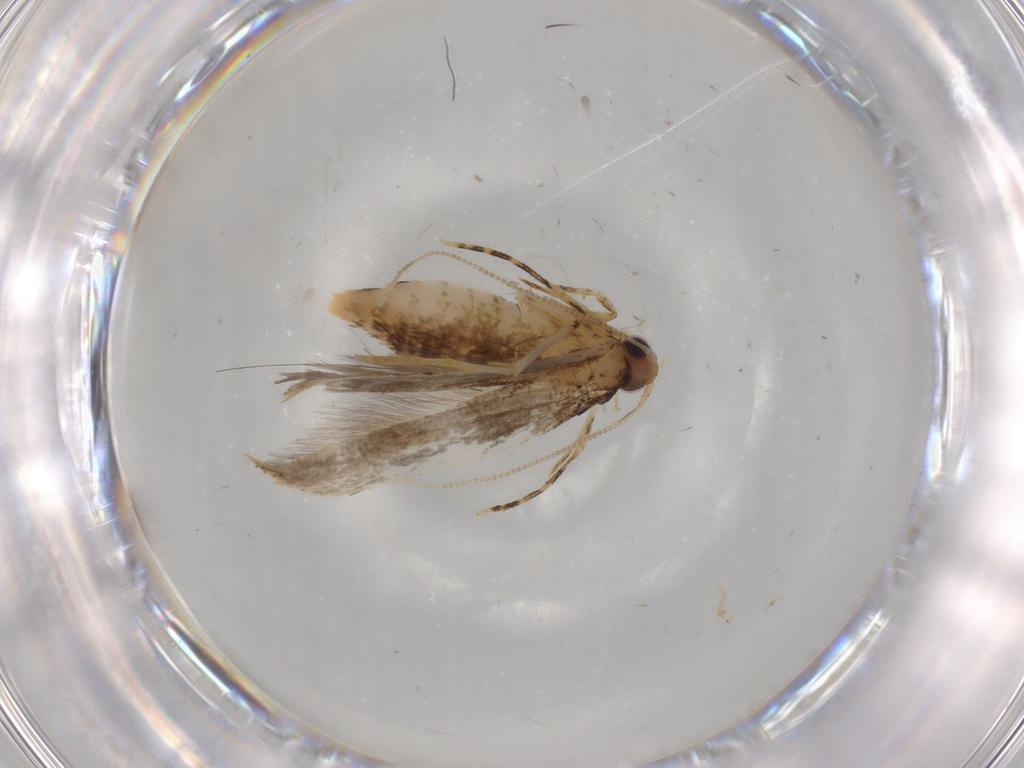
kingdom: Animalia
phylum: Arthropoda
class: Insecta
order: Lepidoptera
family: Tineidae
